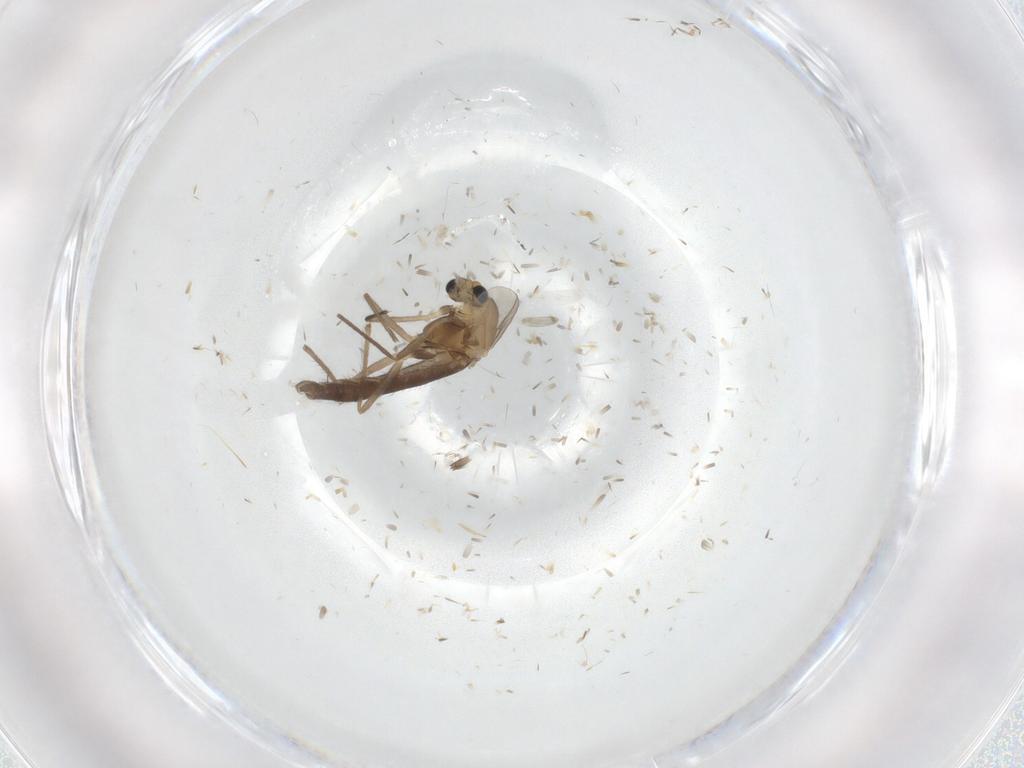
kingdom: Animalia
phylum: Arthropoda
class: Insecta
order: Diptera
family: Chironomidae
